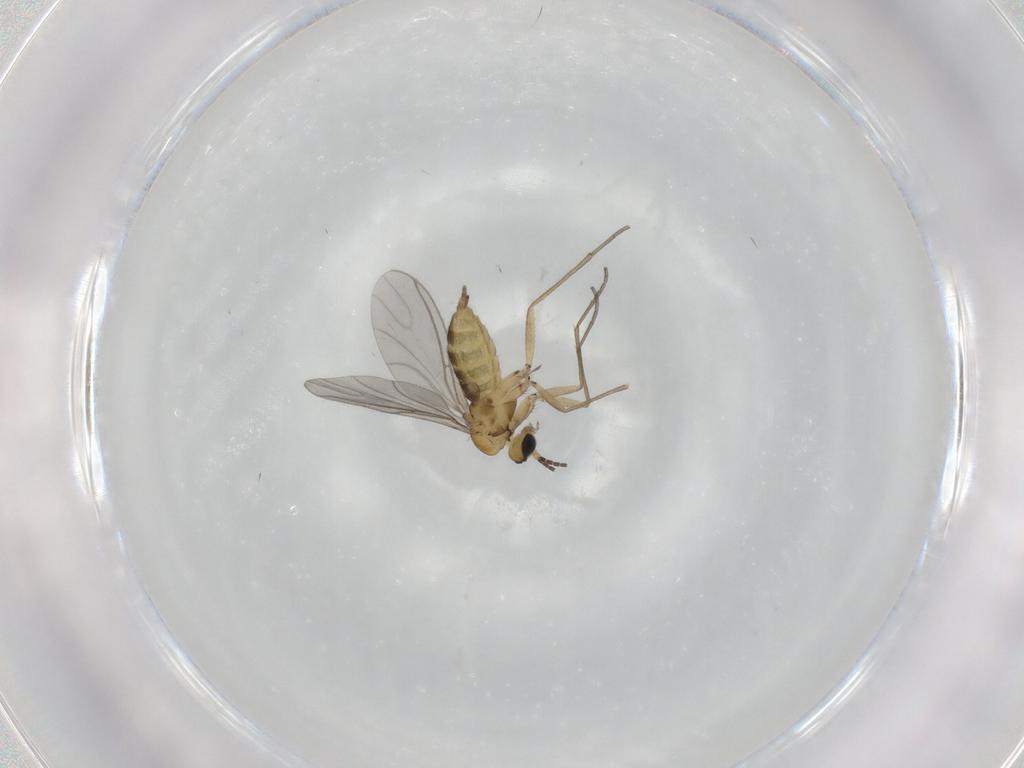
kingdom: Animalia
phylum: Arthropoda
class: Insecta
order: Diptera
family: Sciaridae
